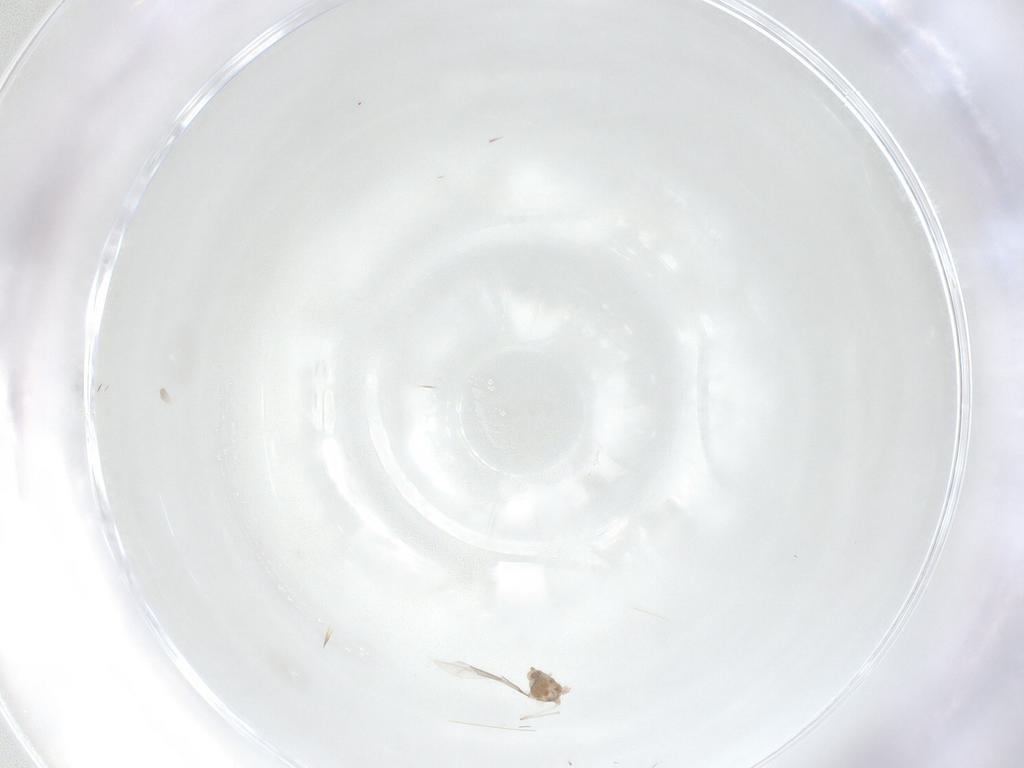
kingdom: Animalia
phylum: Arthropoda
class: Insecta
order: Diptera
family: Cecidomyiidae
